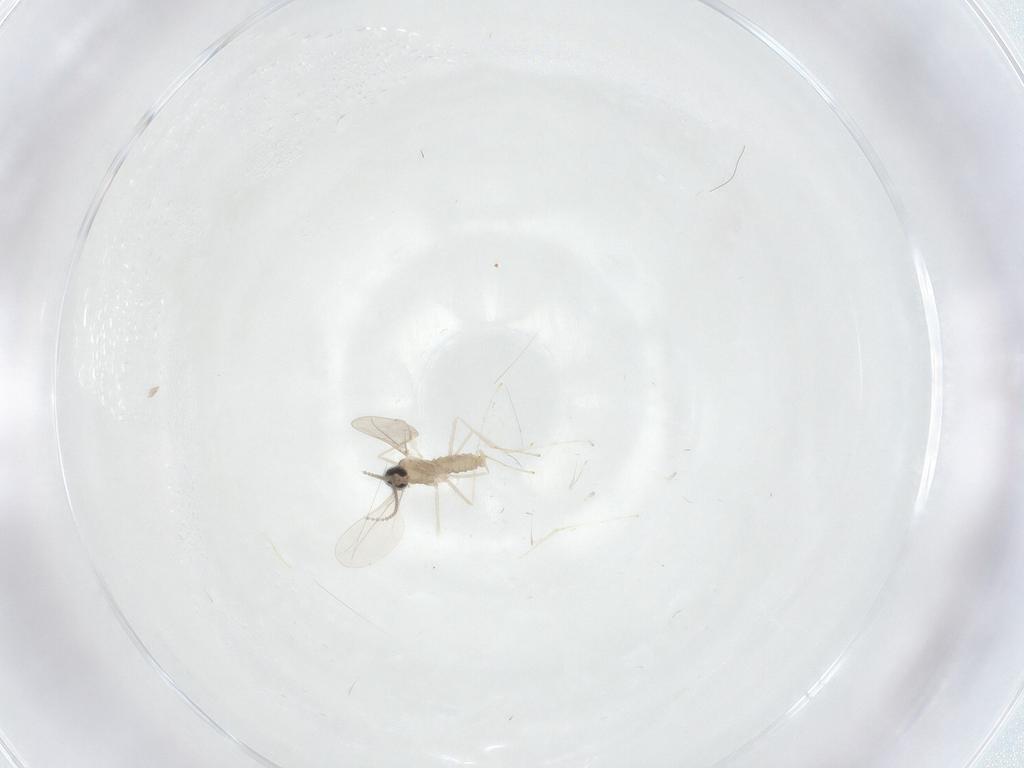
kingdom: Animalia
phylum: Arthropoda
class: Insecta
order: Diptera
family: Cecidomyiidae
